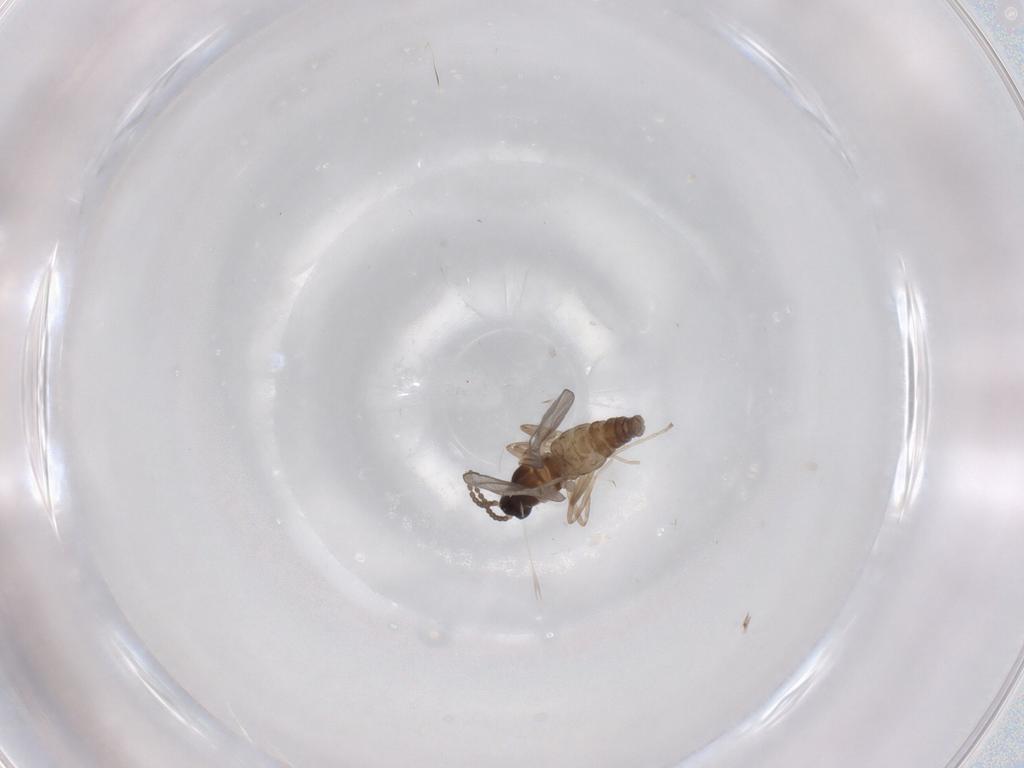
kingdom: Animalia
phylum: Arthropoda
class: Insecta
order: Diptera
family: Cecidomyiidae
